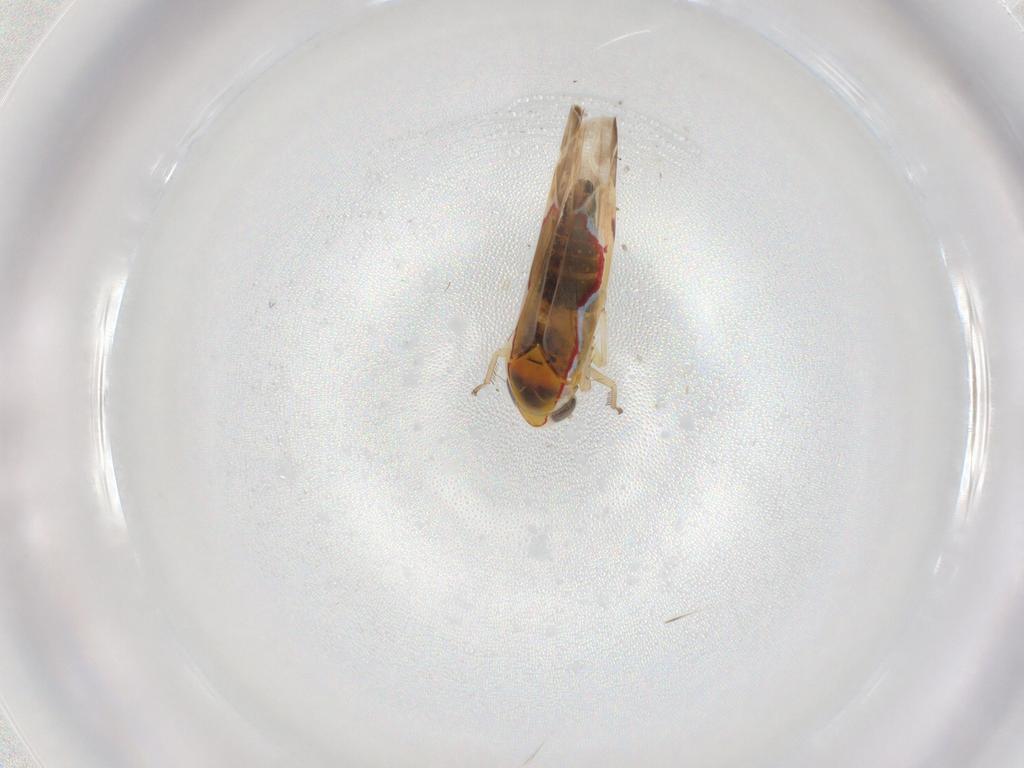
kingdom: Animalia
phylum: Arthropoda
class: Insecta
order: Hemiptera
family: Cicadellidae
